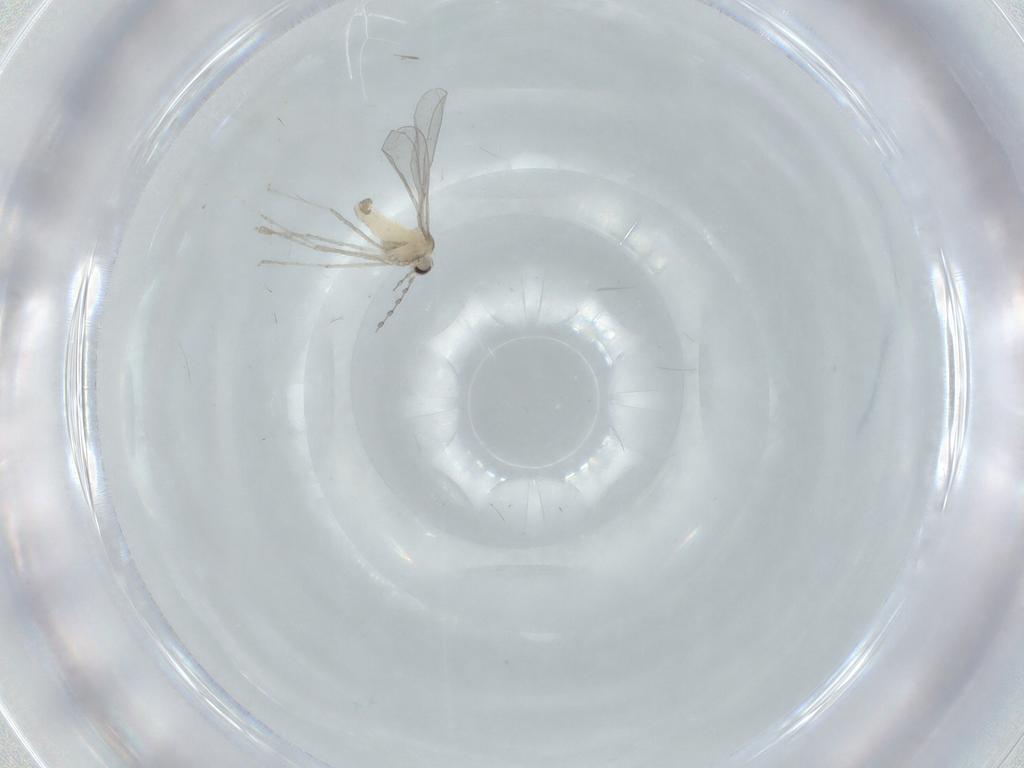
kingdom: Animalia
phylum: Arthropoda
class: Insecta
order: Diptera
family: Cecidomyiidae
